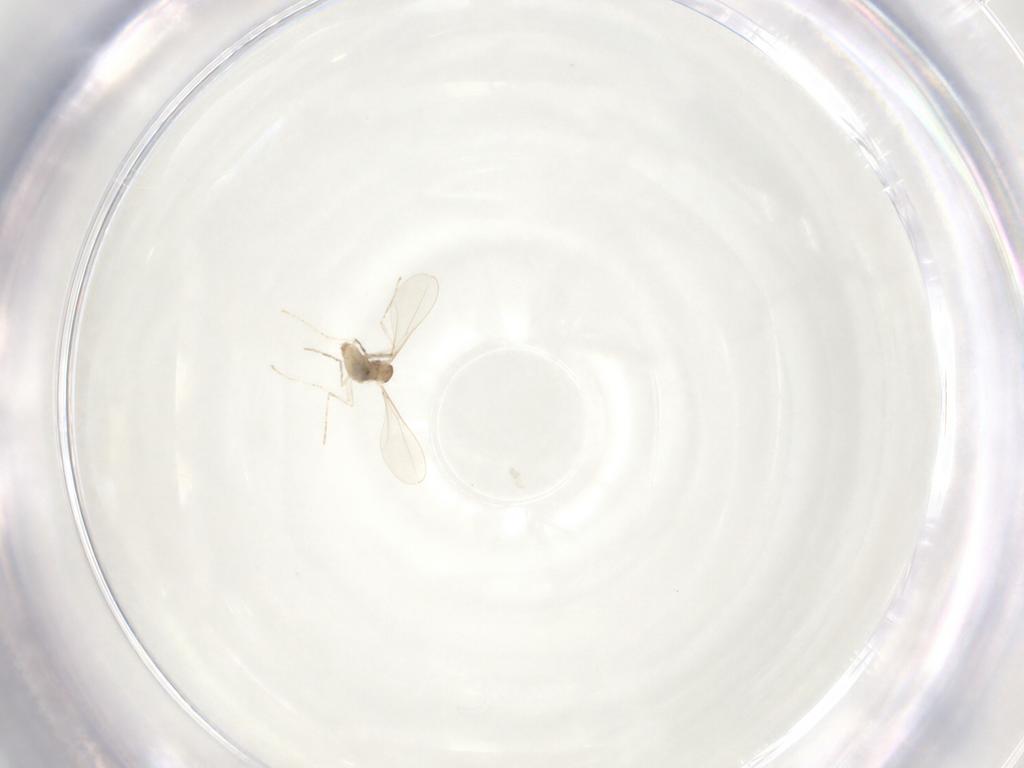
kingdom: Animalia
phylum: Arthropoda
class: Insecta
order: Diptera
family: Cecidomyiidae
